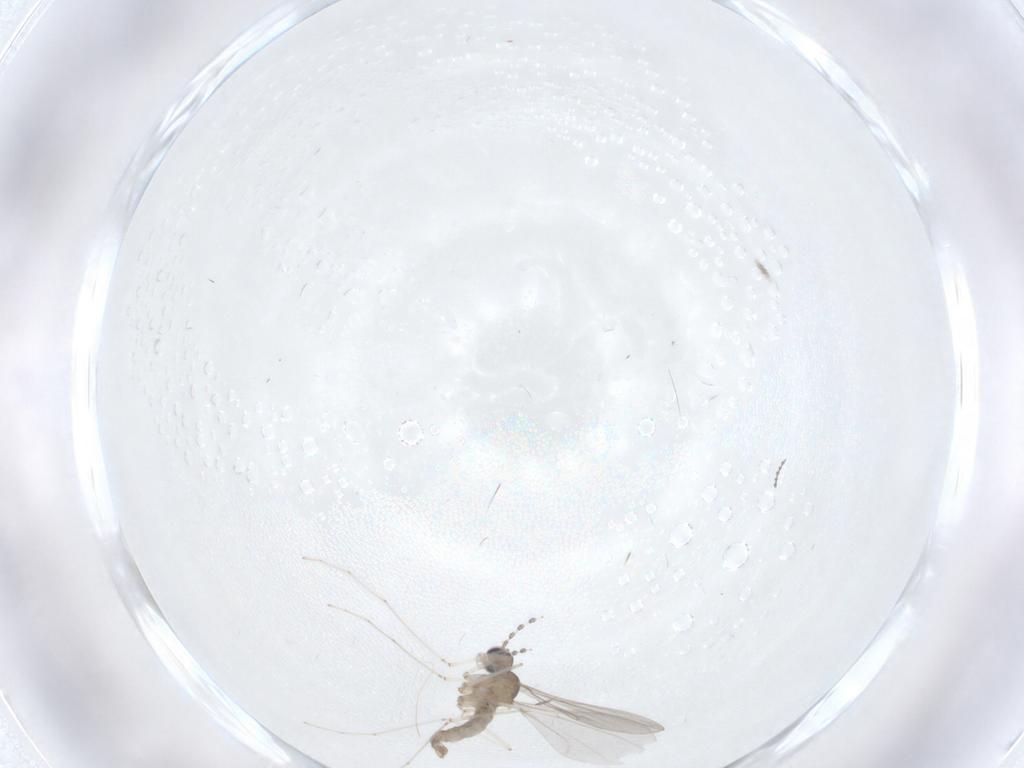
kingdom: Animalia
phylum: Arthropoda
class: Insecta
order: Diptera
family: Cecidomyiidae
